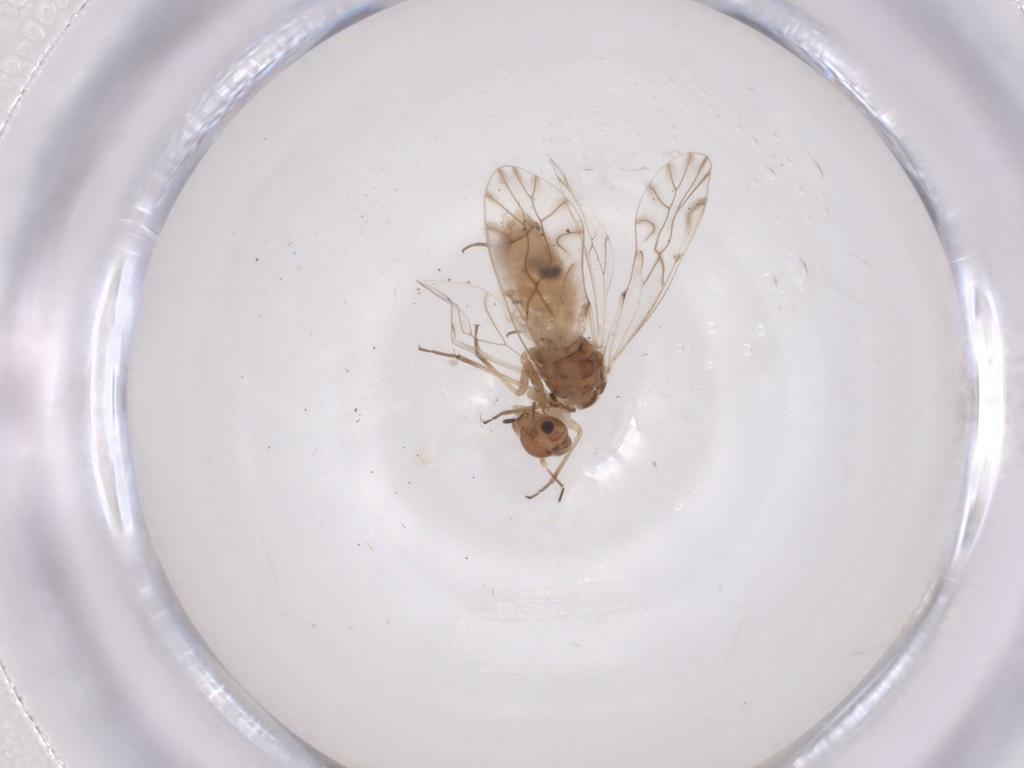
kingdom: Animalia
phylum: Arthropoda
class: Insecta
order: Psocodea
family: Lachesillidae
